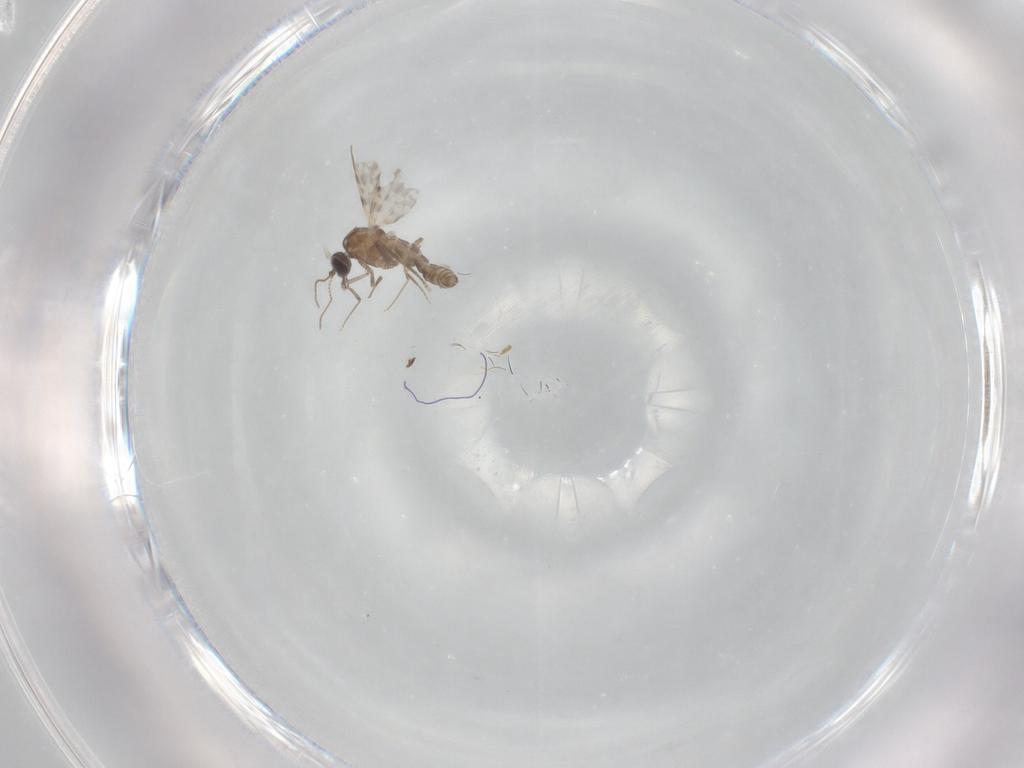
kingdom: Animalia
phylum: Arthropoda
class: Insecta
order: Diptera
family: Ceratopogonidae
